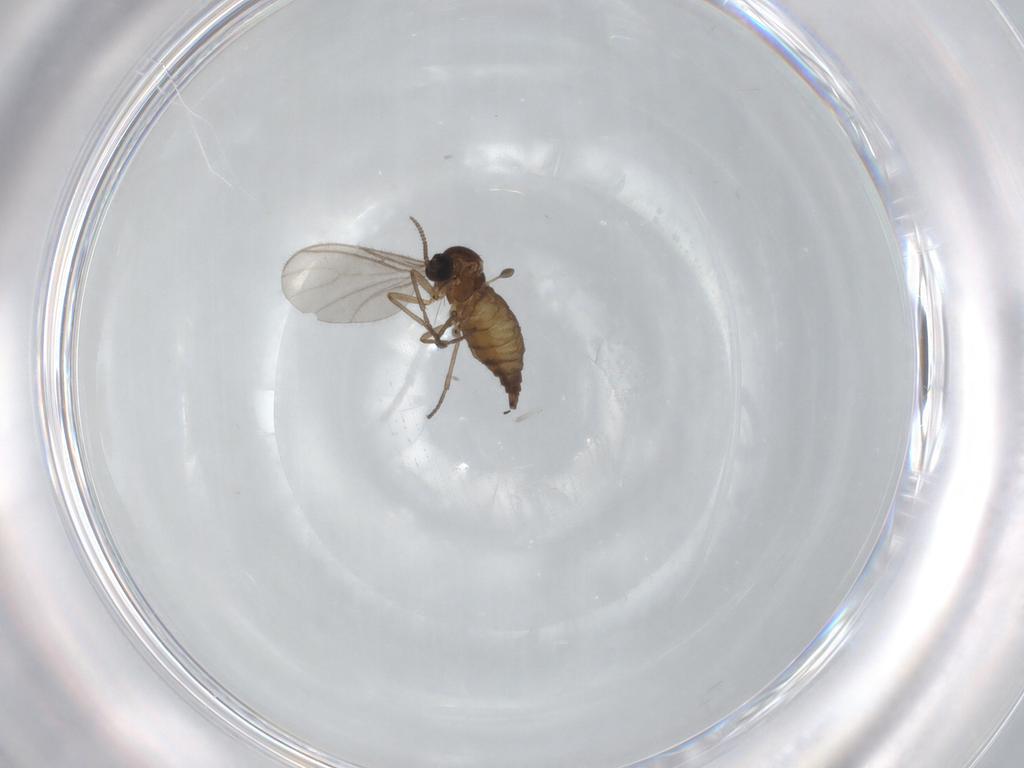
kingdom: Animalia
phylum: Arthropoda
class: Insecta
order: Diptera
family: Sciaridae
